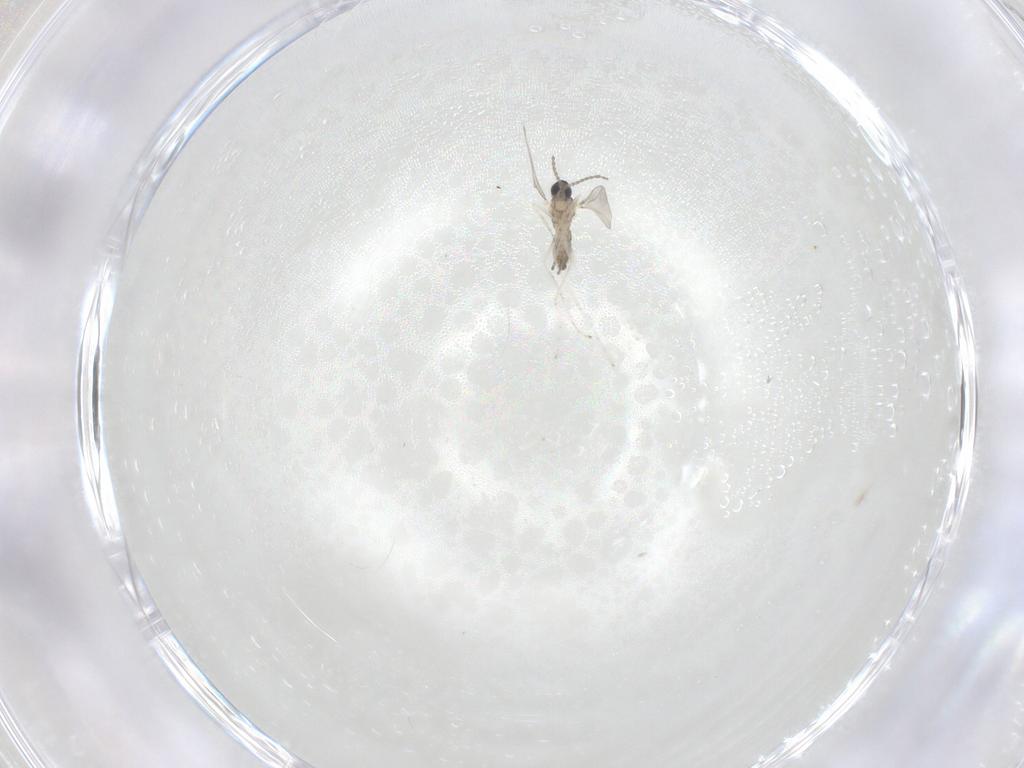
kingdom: Animalia
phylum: Arthropoda
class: Insecta
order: Diptera
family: Cecidomyiidae
